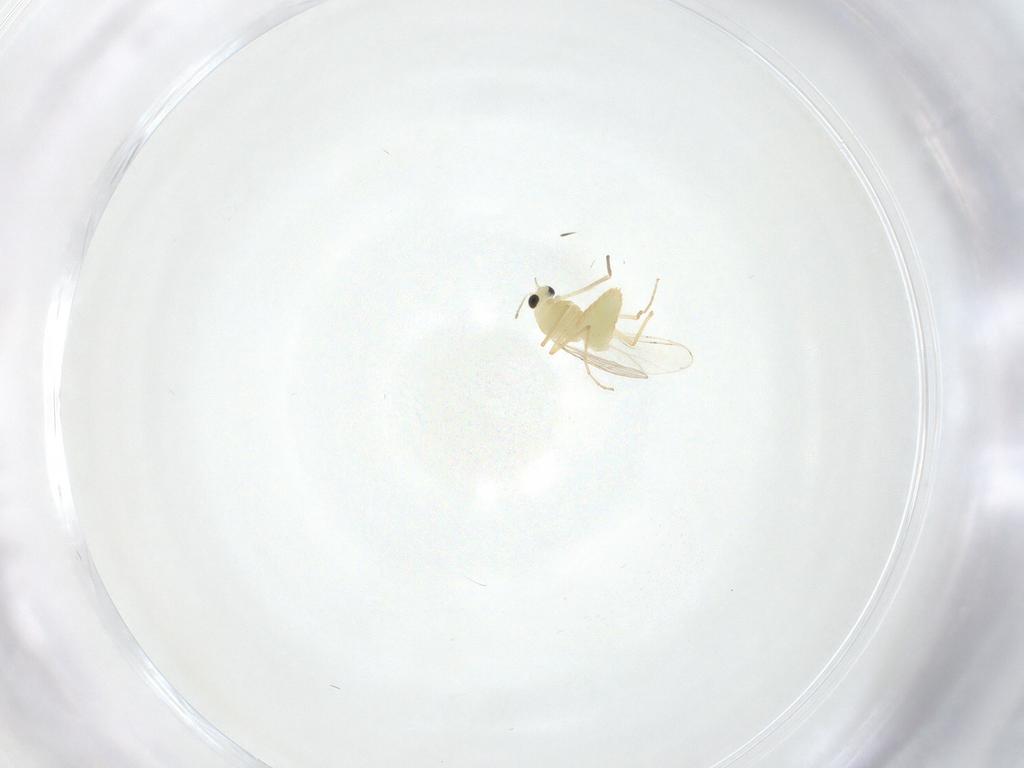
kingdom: Animalia
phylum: Arthropoda
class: Insecta
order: Diptera
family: Chironomidae
